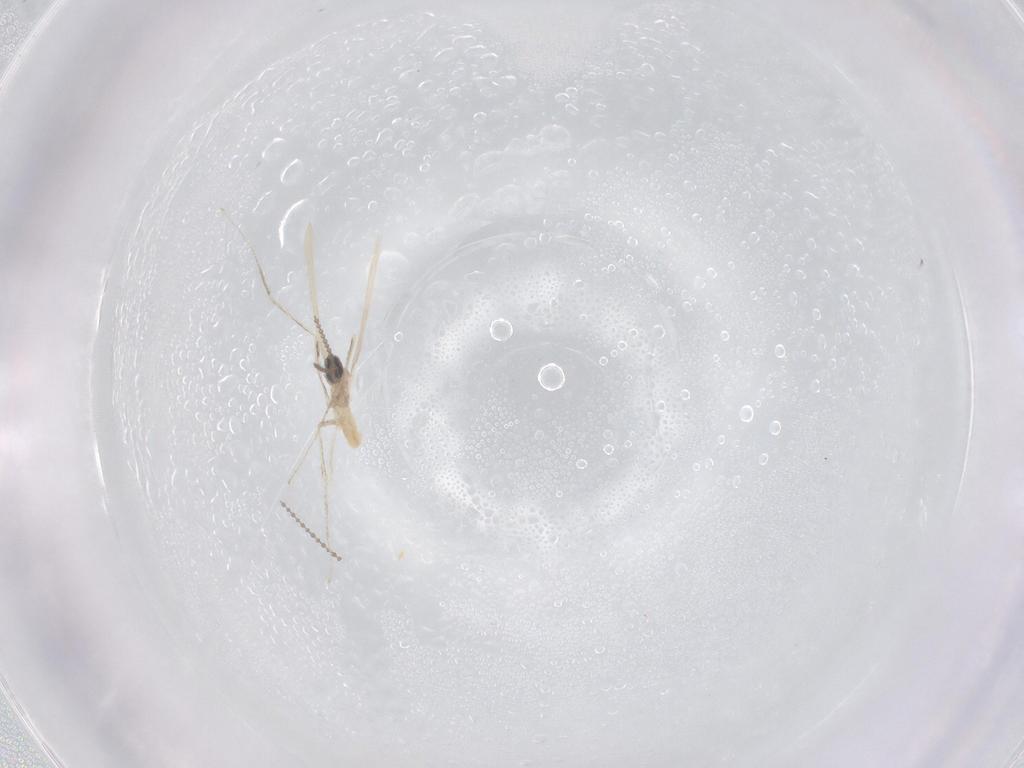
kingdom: Animalia
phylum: Arthropoda
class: Insecta
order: Diptera
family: Cecidomyiidae
